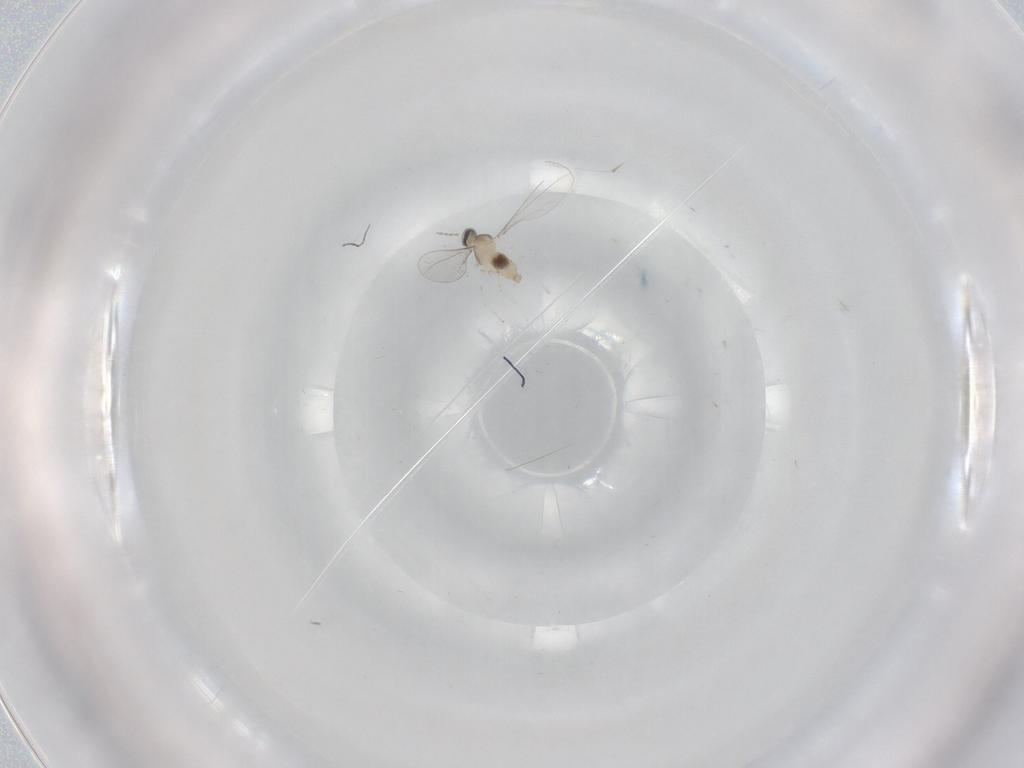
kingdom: Animalia
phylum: Arthropoda
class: Insecta
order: Diptera
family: Cecidomyiidae
